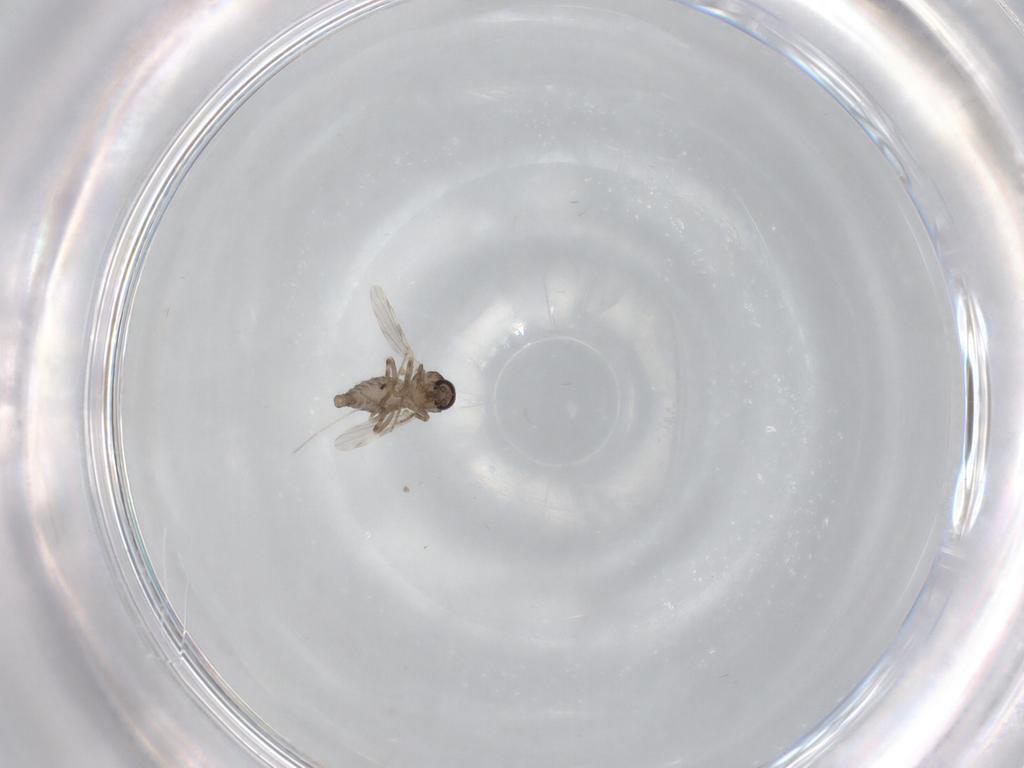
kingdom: Animalia
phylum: Arthropoda
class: Insecta
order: Diptera
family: Ceratopogonidae
